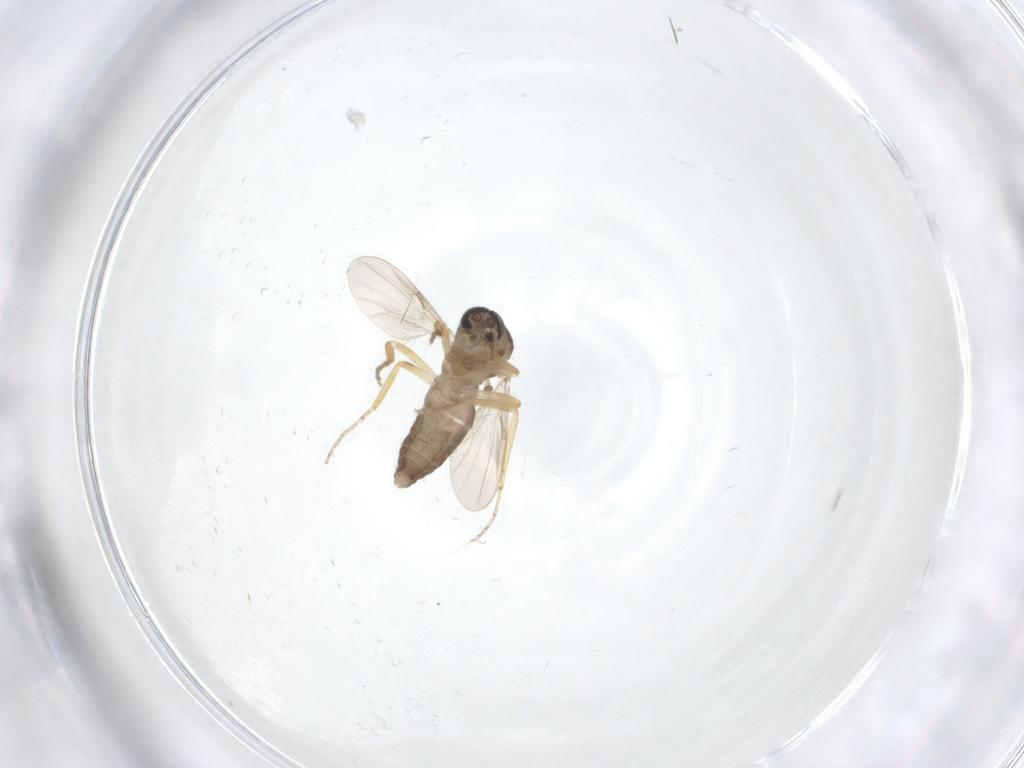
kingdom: Animalia
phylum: Arthropoda
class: Insecta
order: Diptera
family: Ceratopogonidae
